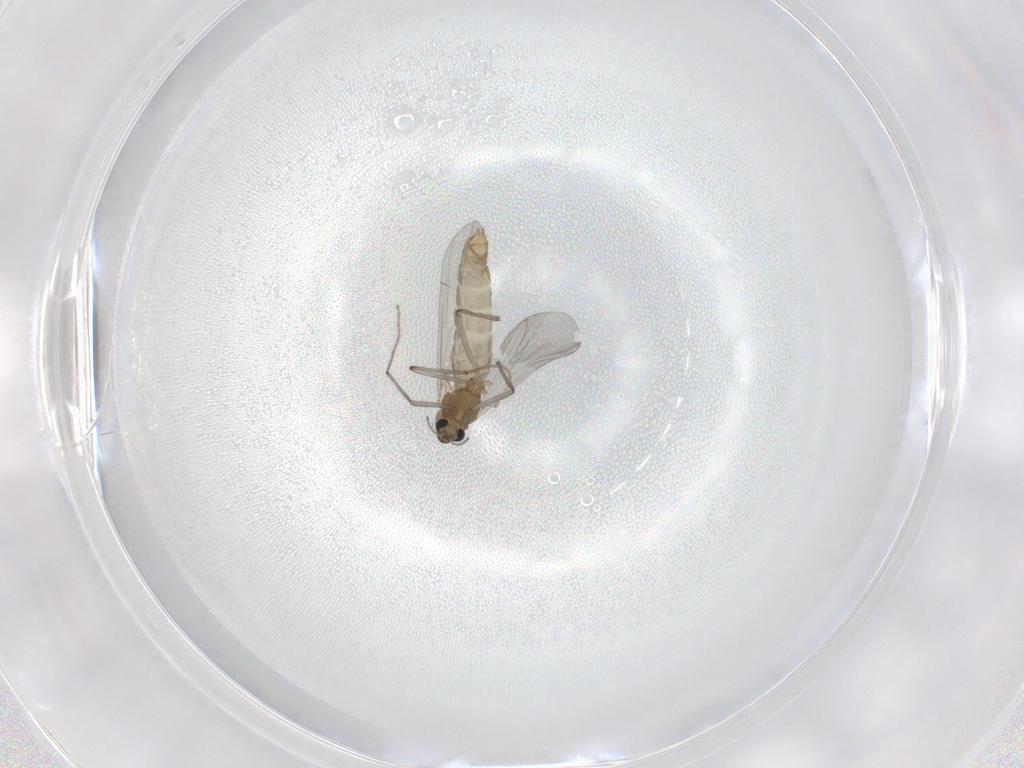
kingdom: Animalia
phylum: Arthropoda
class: Insecta
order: Diptera
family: Chironomidae
